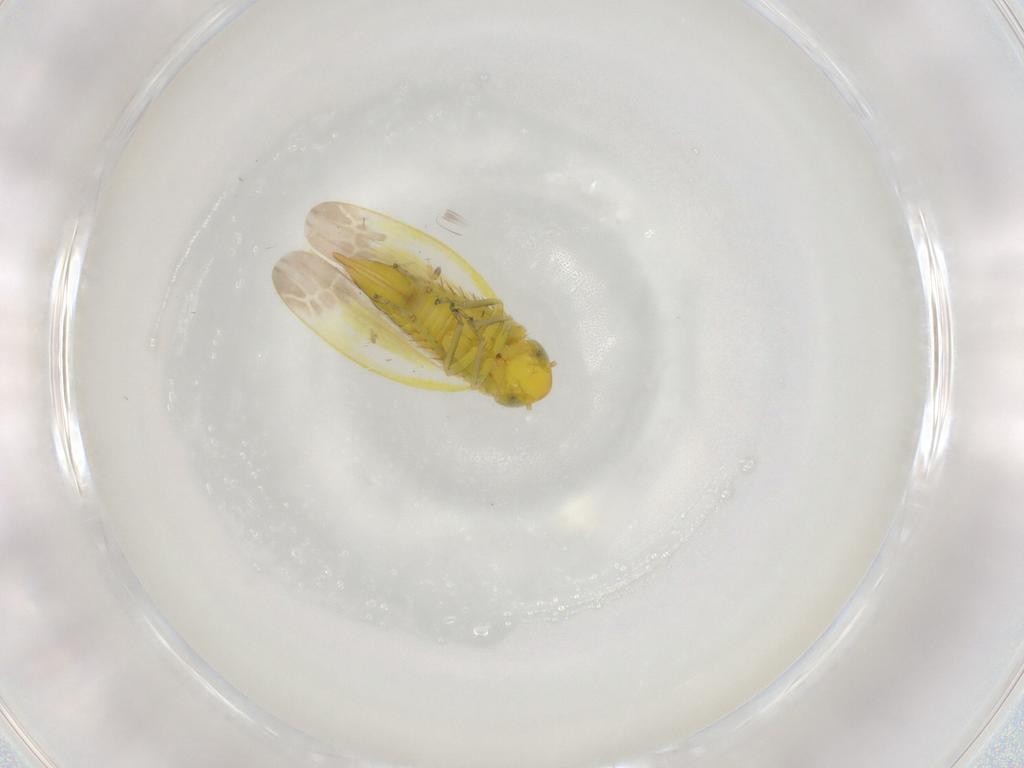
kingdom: Animalia
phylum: Arthropoda
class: Insecta
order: Hemiptera
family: Cicadellidae
